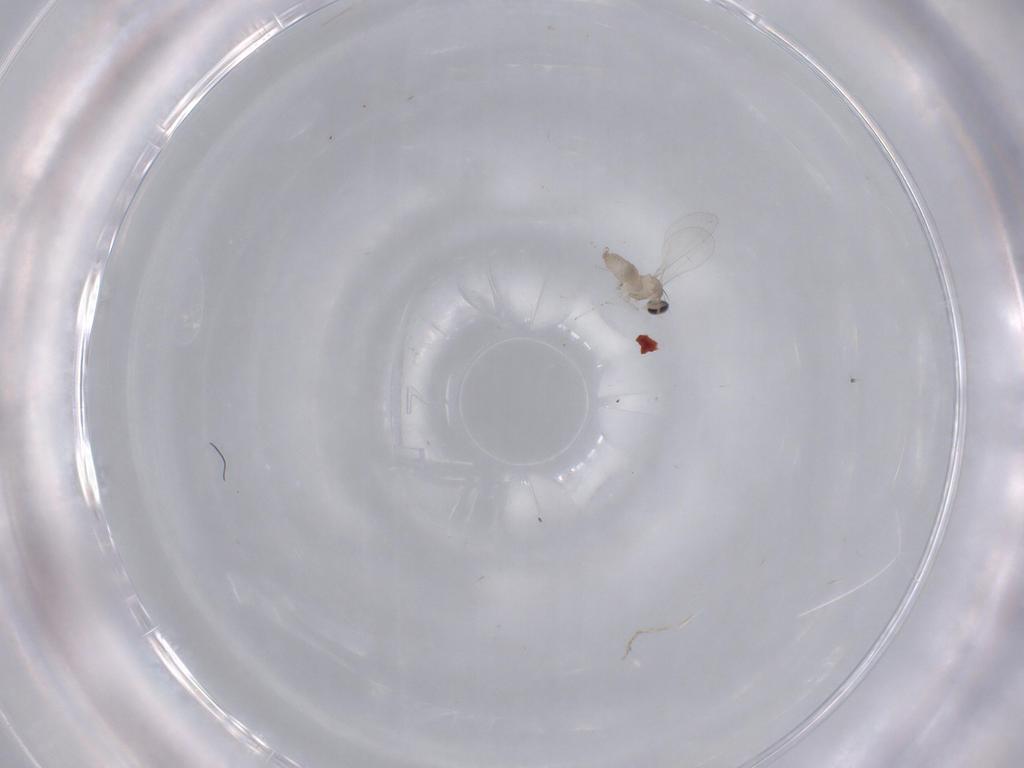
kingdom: Animalia
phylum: Arthropoda
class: Insecta
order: Diptera
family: Cecidomyiidae
